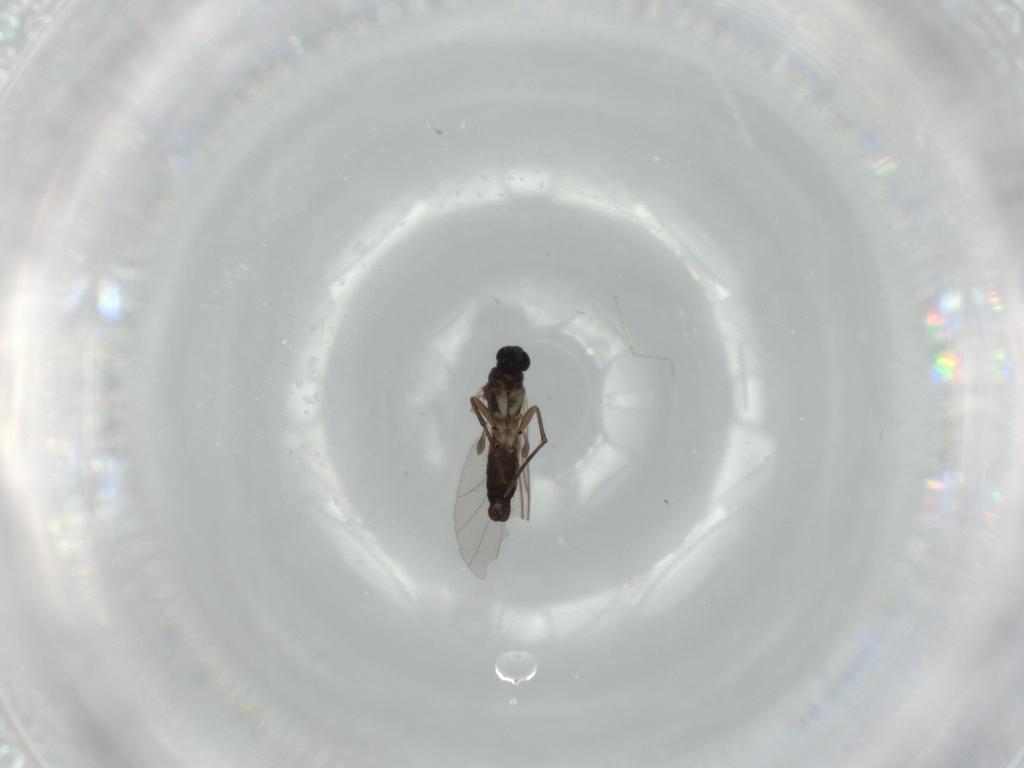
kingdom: Animalia
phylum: Arthropoda
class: Insecta
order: Diptera
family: Sciaridae
